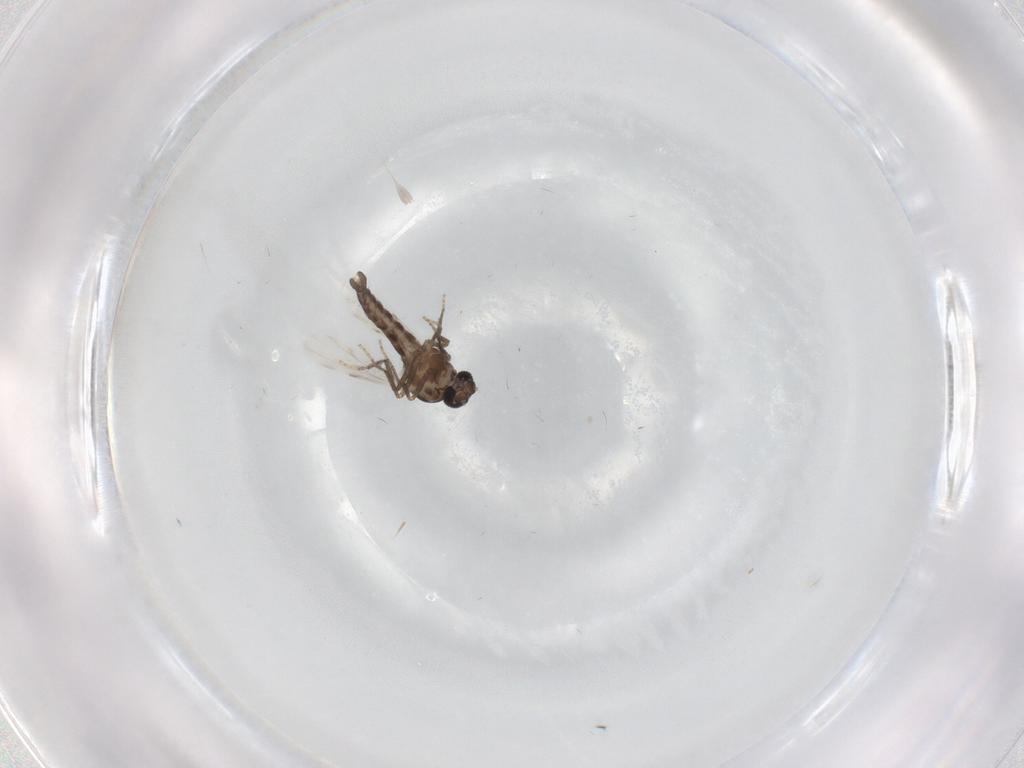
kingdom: Animalia
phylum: Arthropoda
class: Insecta
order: Diptera
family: Ceratopogonidae
